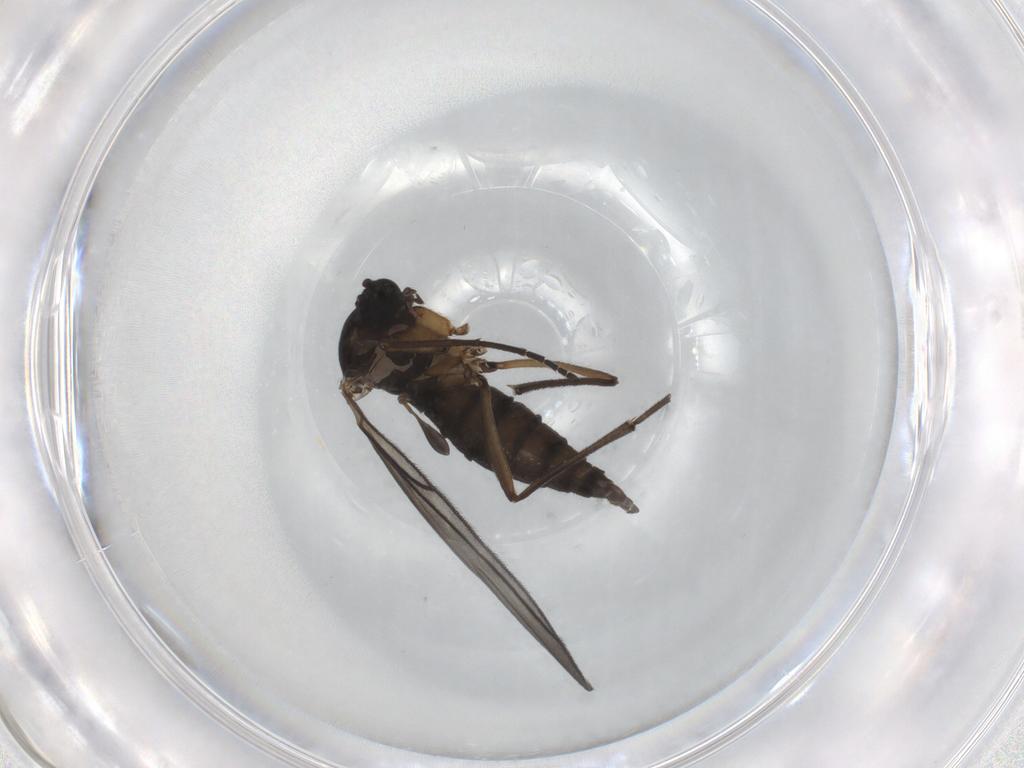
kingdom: Animalia
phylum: Arthropoda
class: Insecta
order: Diptera
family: Sciaridae
